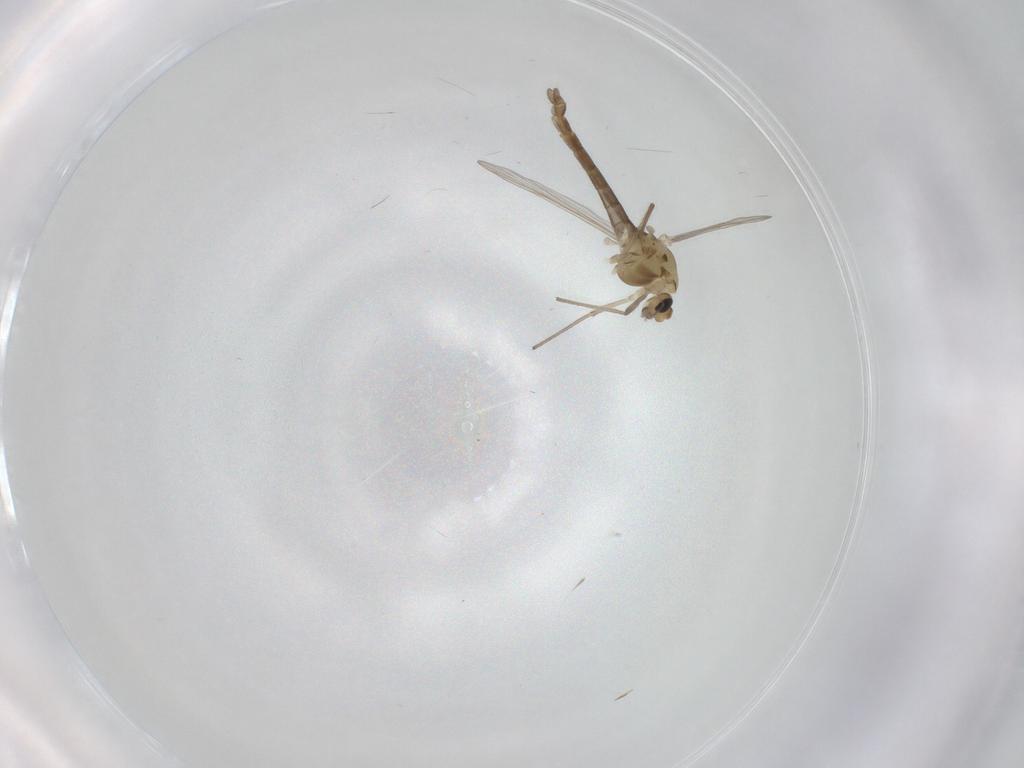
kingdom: Animalia
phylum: Arthropoda
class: Insecta
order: Diptera
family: Chironomidae
